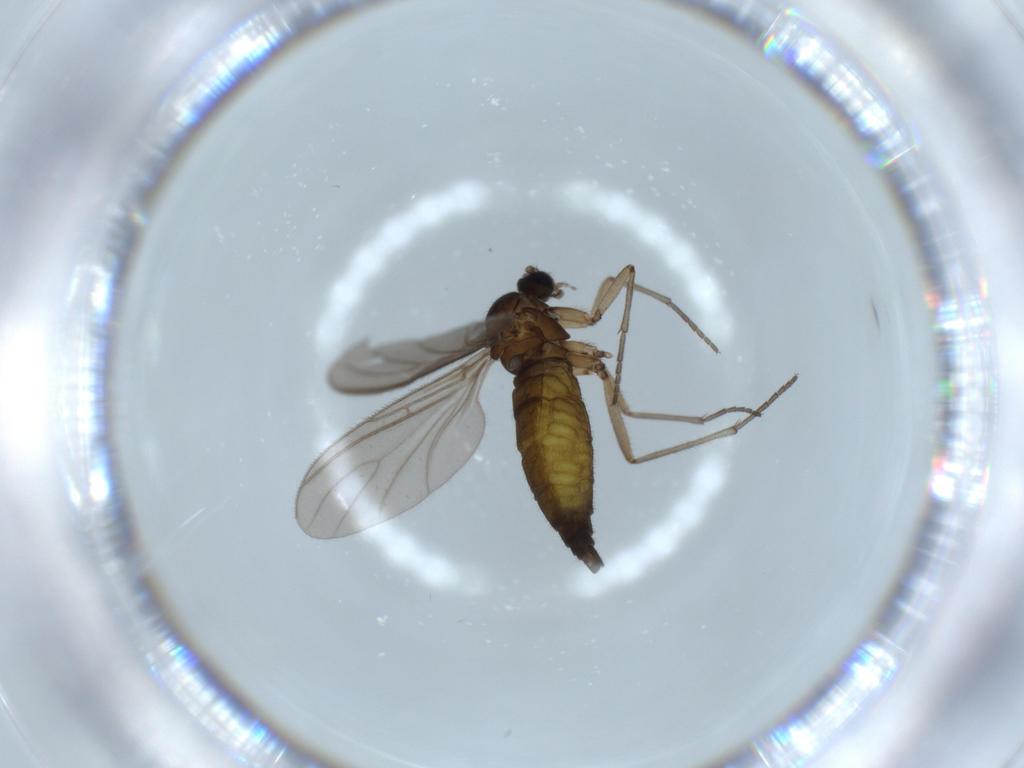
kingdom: Animalia
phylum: Arthropoda
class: Insecta
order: Diptera
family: Sciaridae
